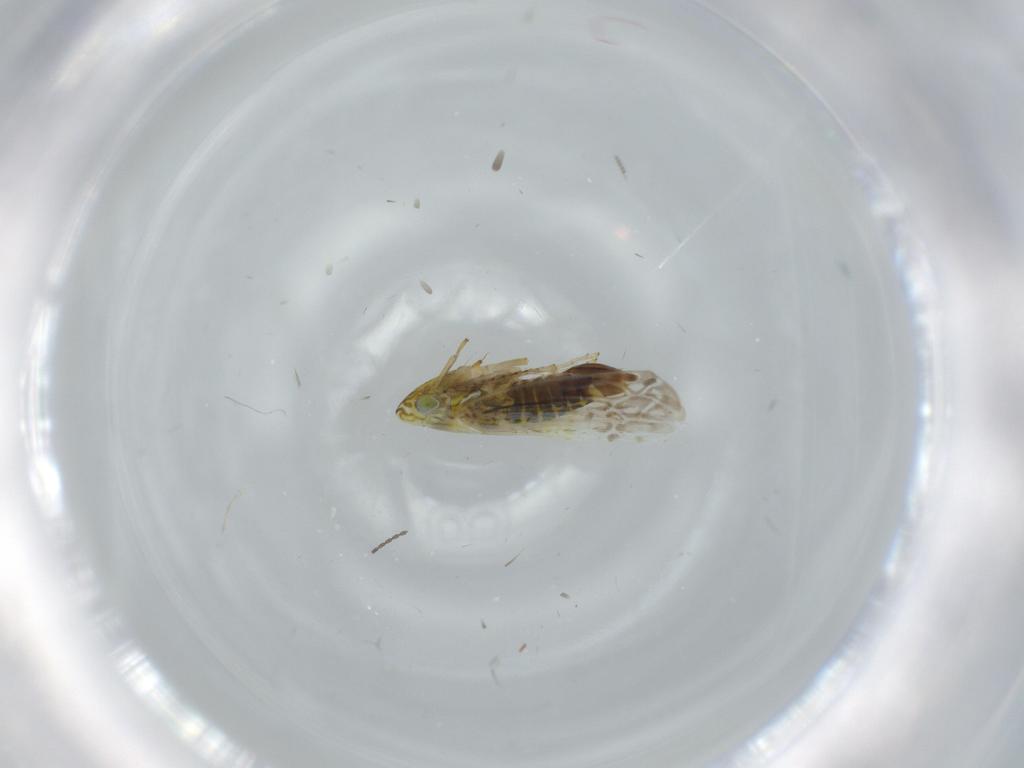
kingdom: Animalia
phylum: Arthropoda
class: Insecta
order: Hemiptera
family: Cicadellidae
